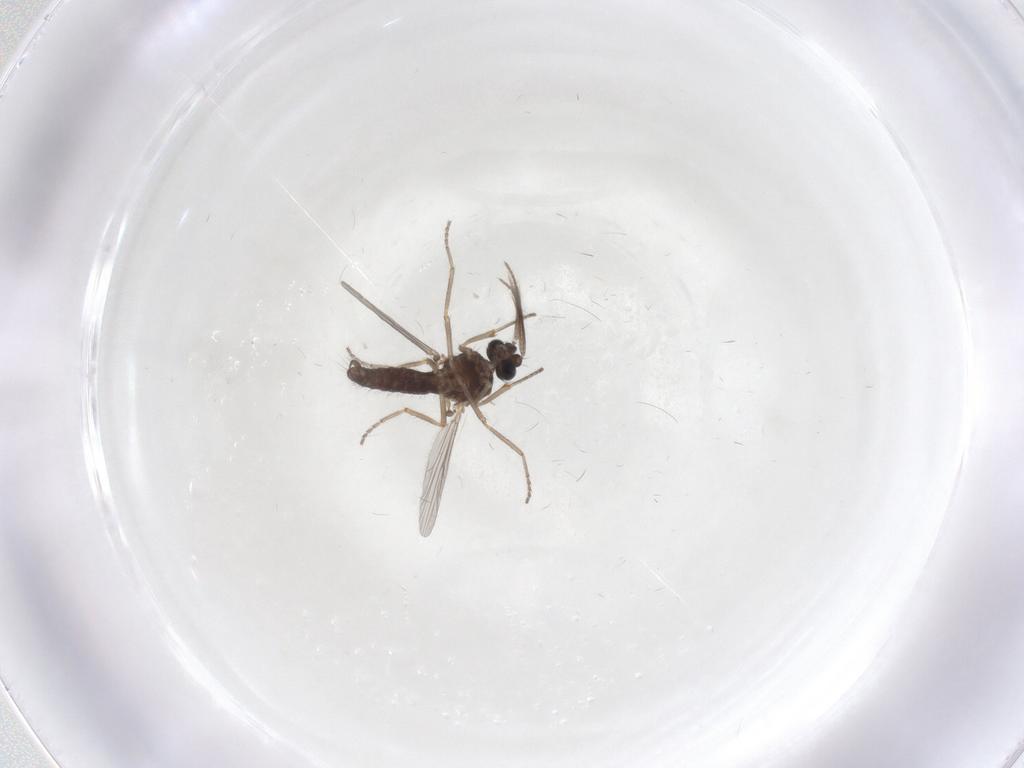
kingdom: Animalia
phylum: Arthropoda
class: Insecta
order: Diptera
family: Ceratopogonidae
